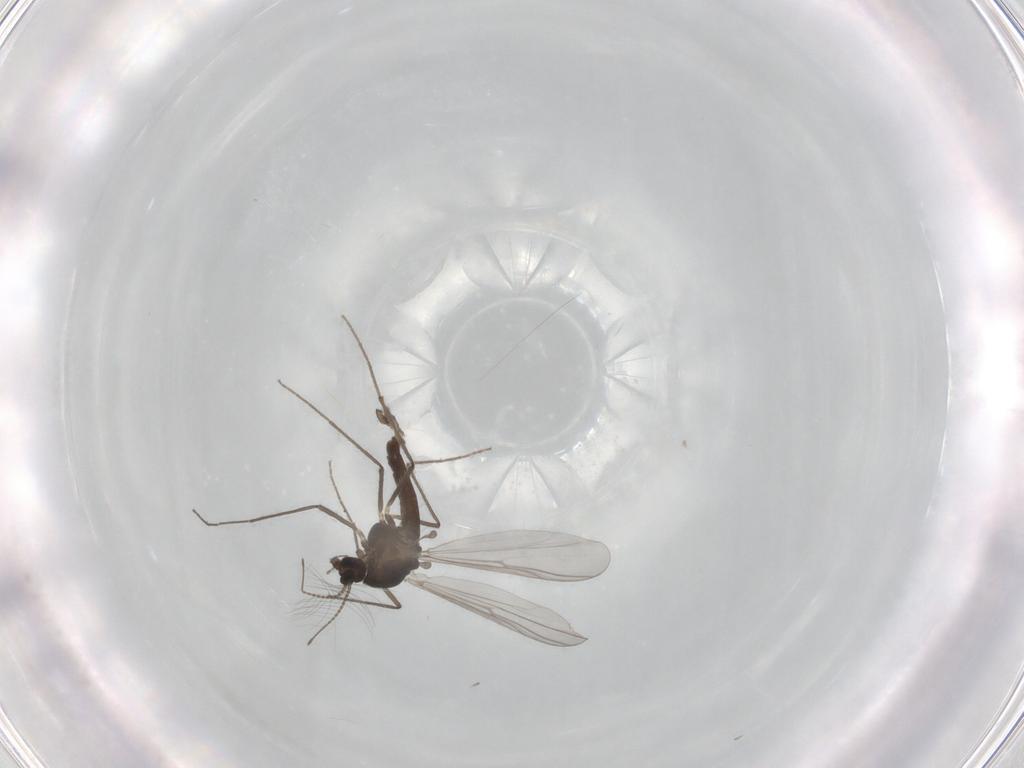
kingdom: Animalia
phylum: Arthropoda
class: Insecta
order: Diptera
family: Chironomidae
